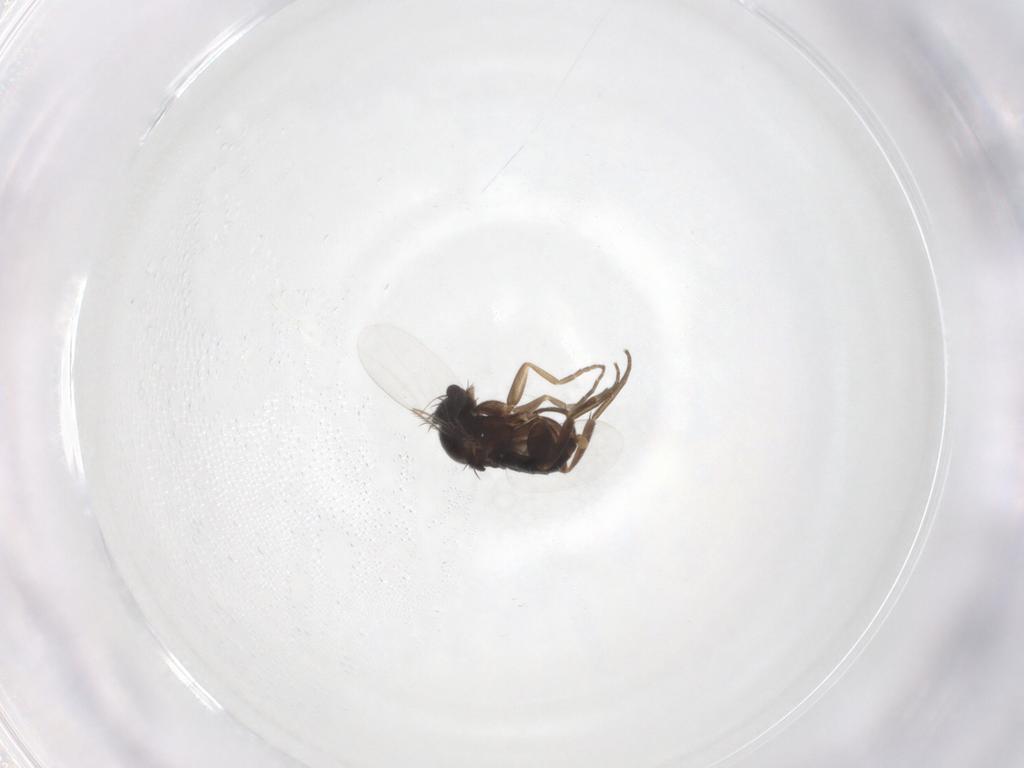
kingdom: Animalia
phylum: Arthropoda
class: Insecta
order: Diptera
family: Phoridae
